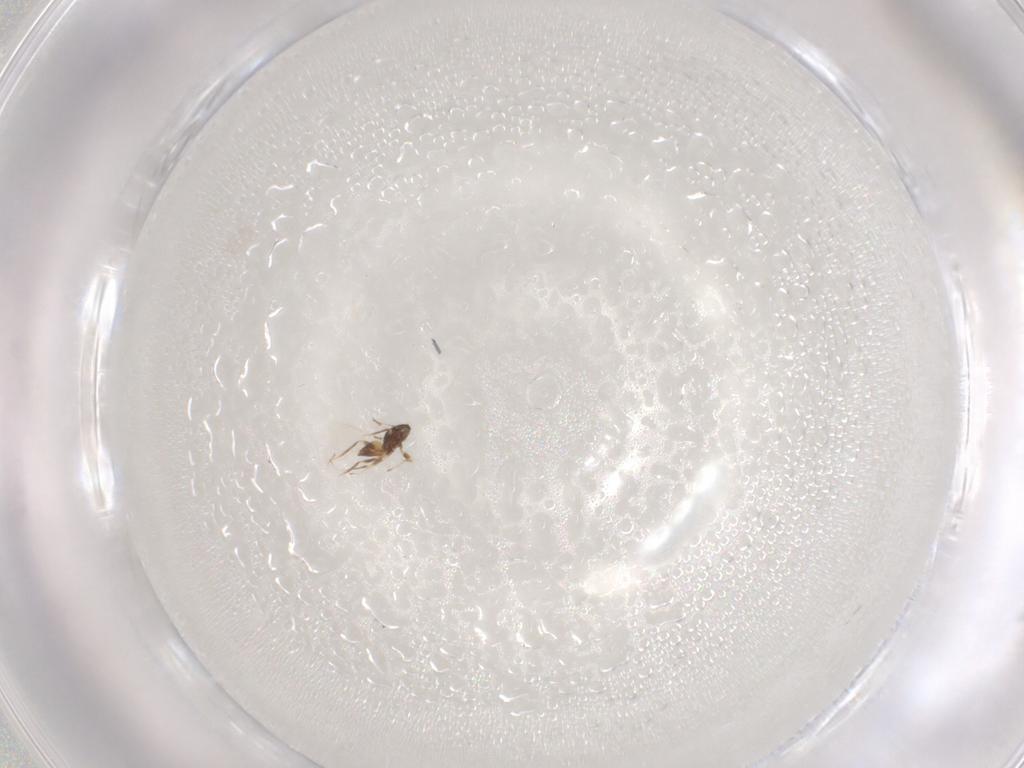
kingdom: Animalia
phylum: Arthropoda
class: Insecta
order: Hymenoptera
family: Mymaridae
